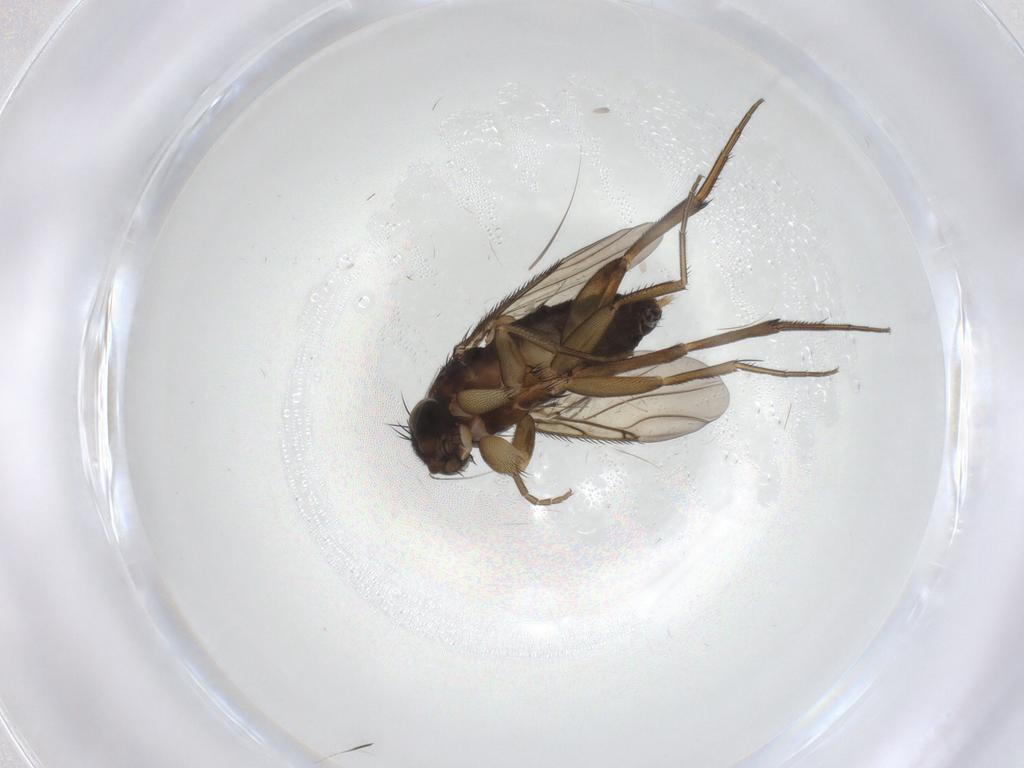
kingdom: Animalia
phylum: Arthropoda
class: Insecta
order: Diptera
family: Phoridae
